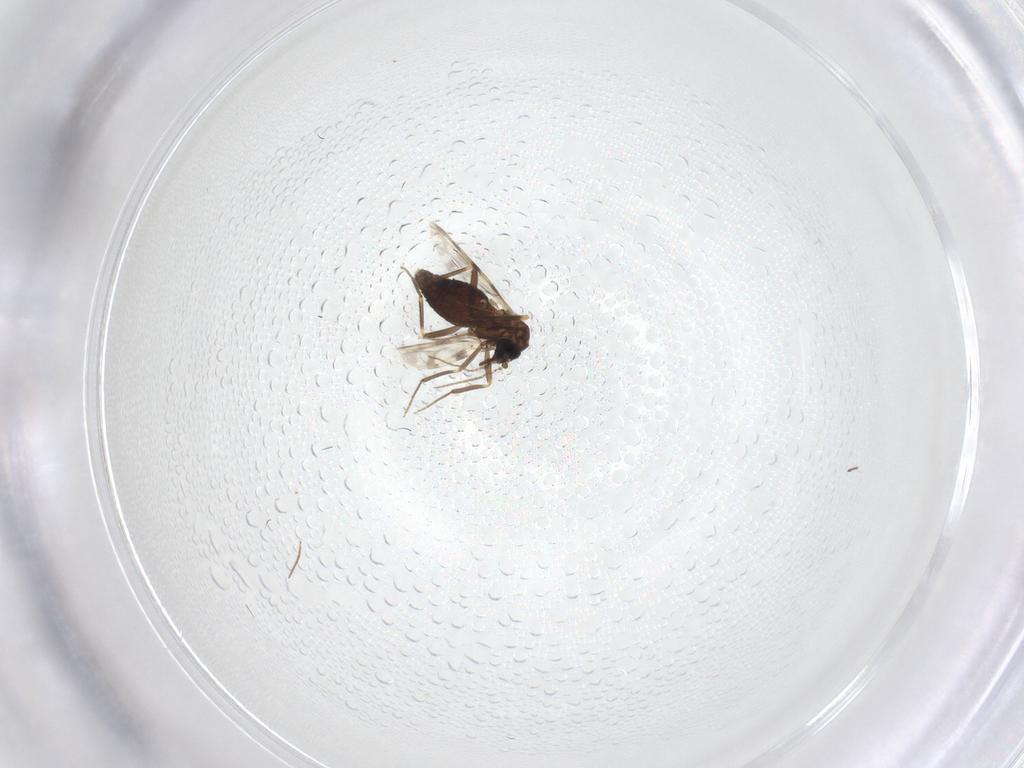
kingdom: Animalia
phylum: Arthropoda
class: Insecta
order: Diptera
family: Ceratopogonidae
